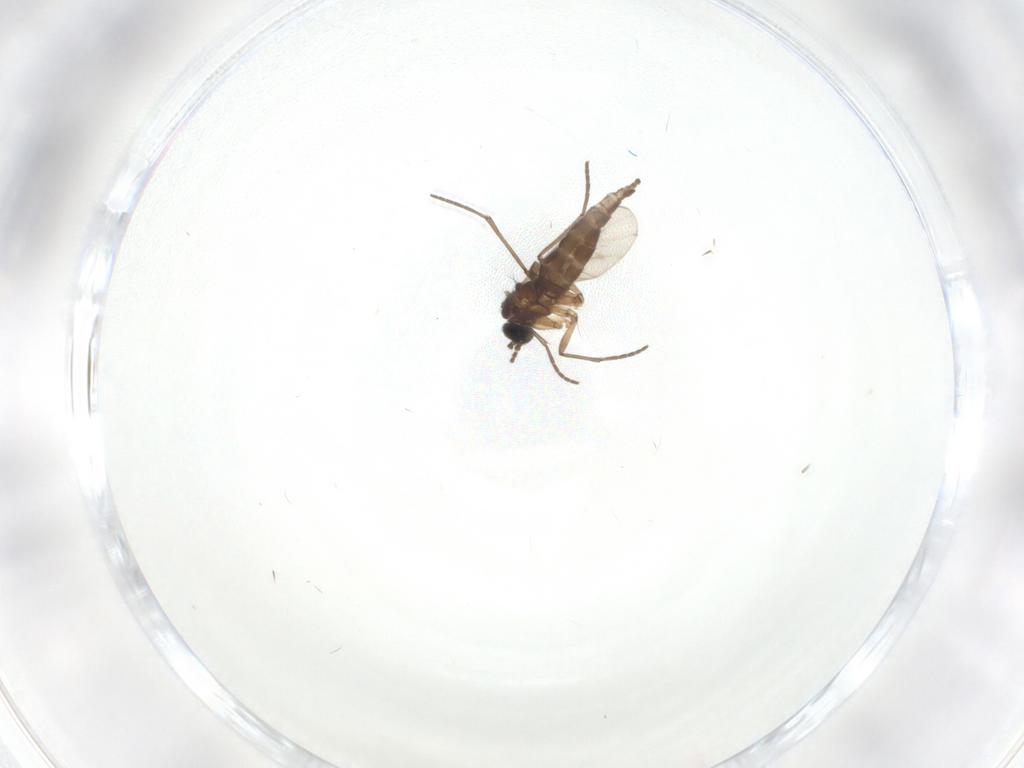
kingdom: Animalia
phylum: Arthropoda
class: Insecta
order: Diptera
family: Sciaridae
